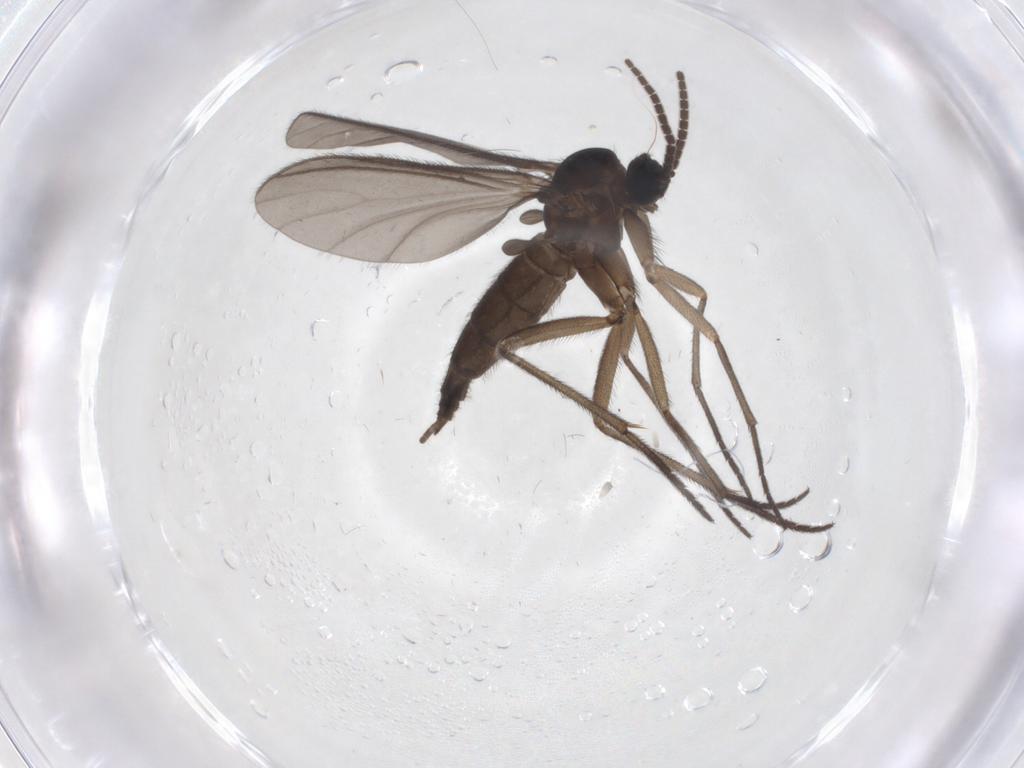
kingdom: Animalia
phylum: Arthropoda
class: Insecta
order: Diptera
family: Sciaridae
